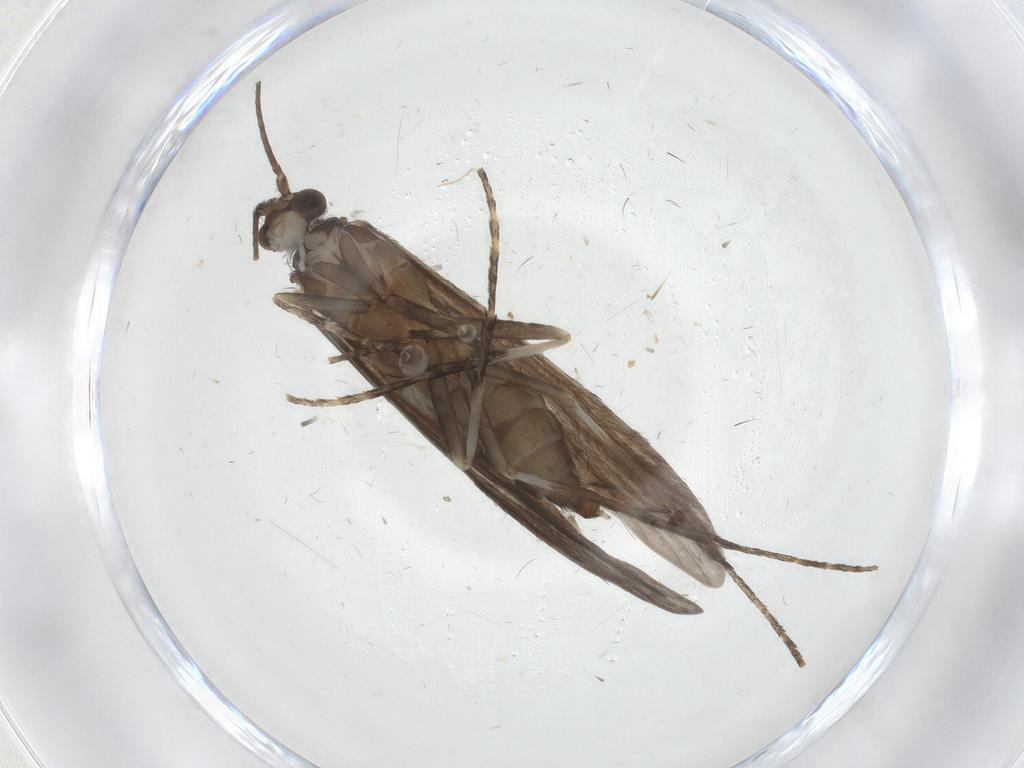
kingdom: Animalia
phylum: Arthropoda
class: Insecta
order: Trichoptera
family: Xiphocentronidae
